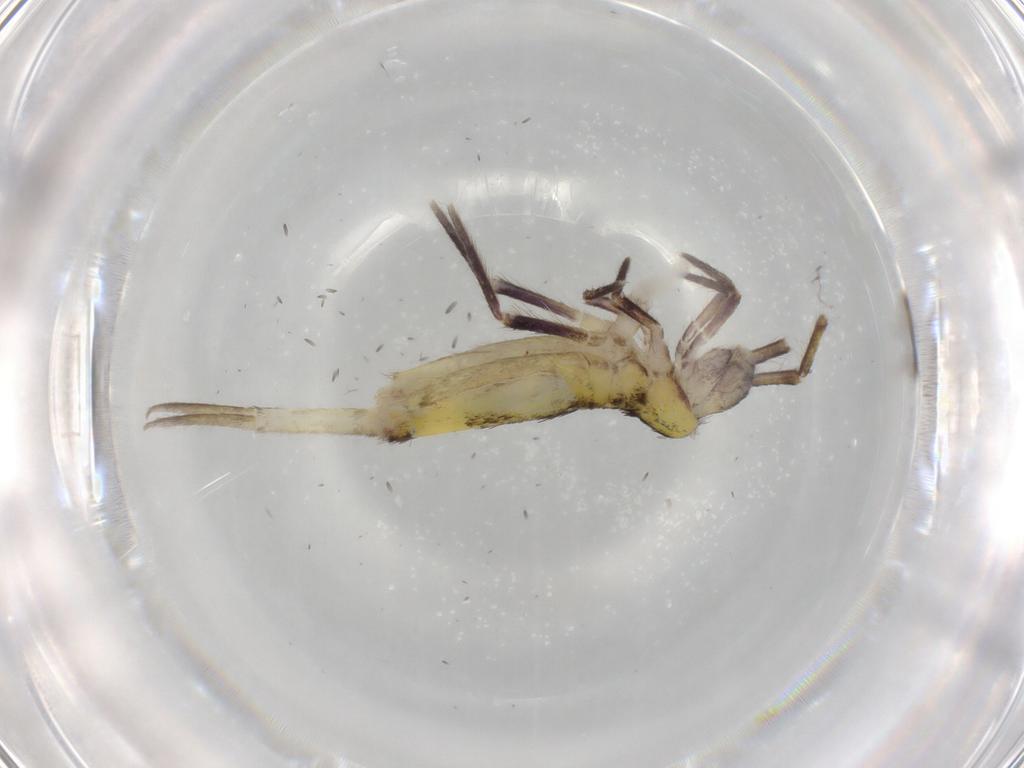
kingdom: Animalia
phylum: Arthropoda
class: Collembola
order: Entomobryomorpha
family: Entomobryidae
